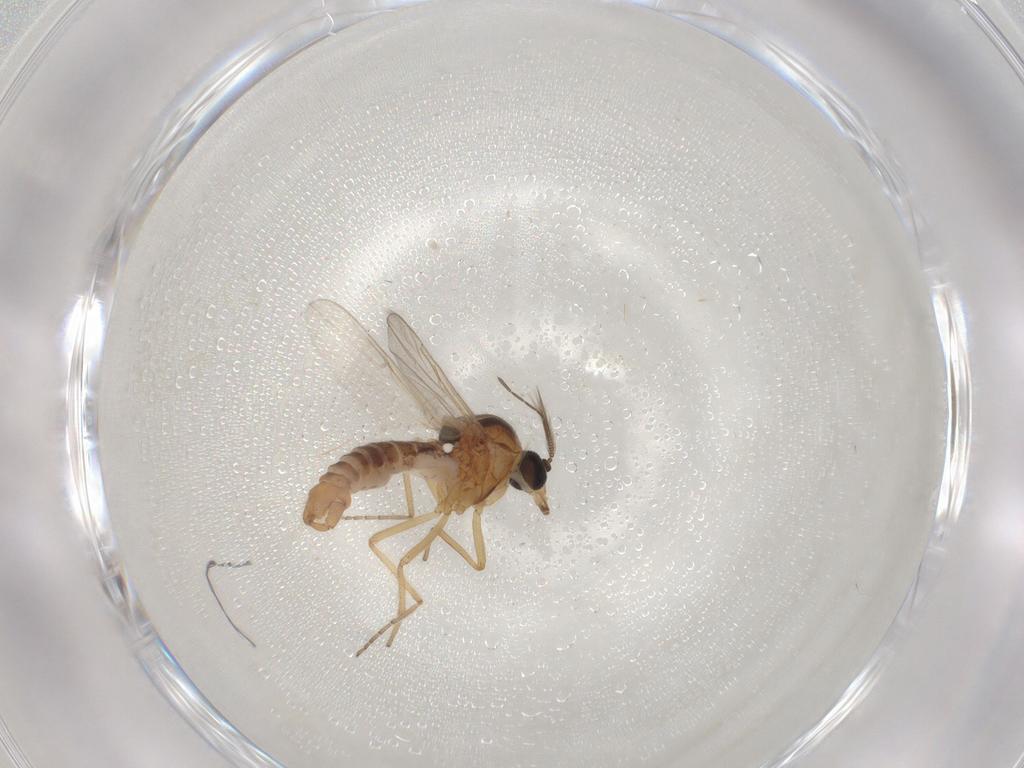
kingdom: Animalia
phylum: Arthropoda
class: Insecta
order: Diptera
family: Ceratopogonidae
